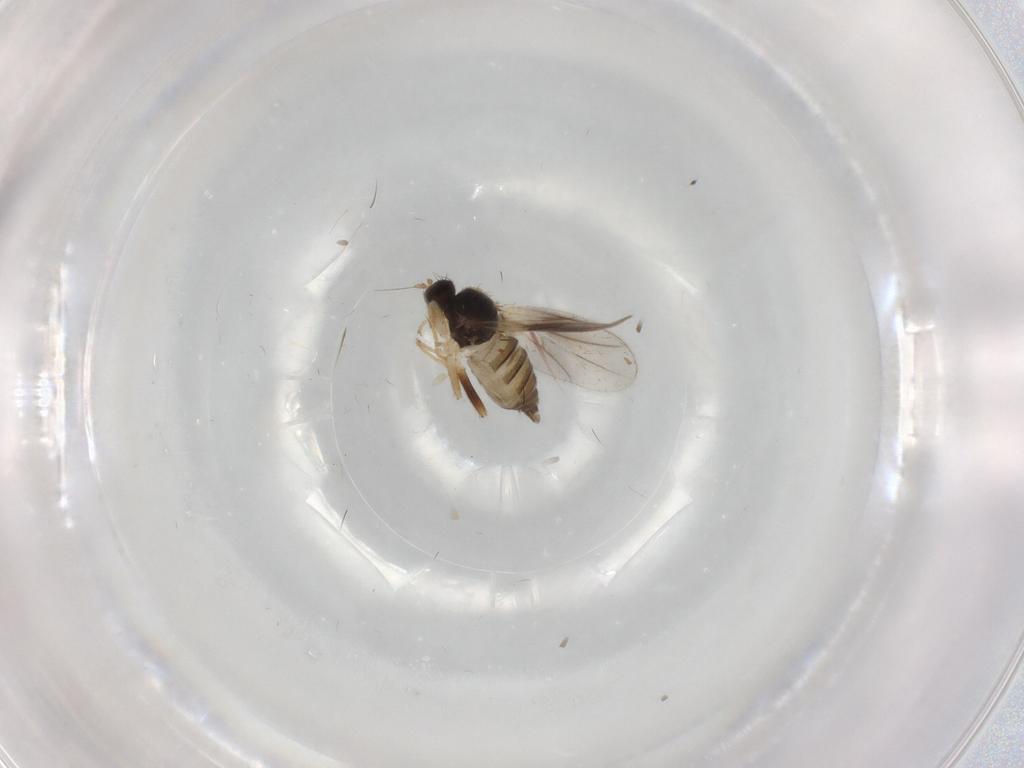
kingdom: Animalia
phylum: Arthropoda
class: Insecta
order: Diptera
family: Hybotidae
